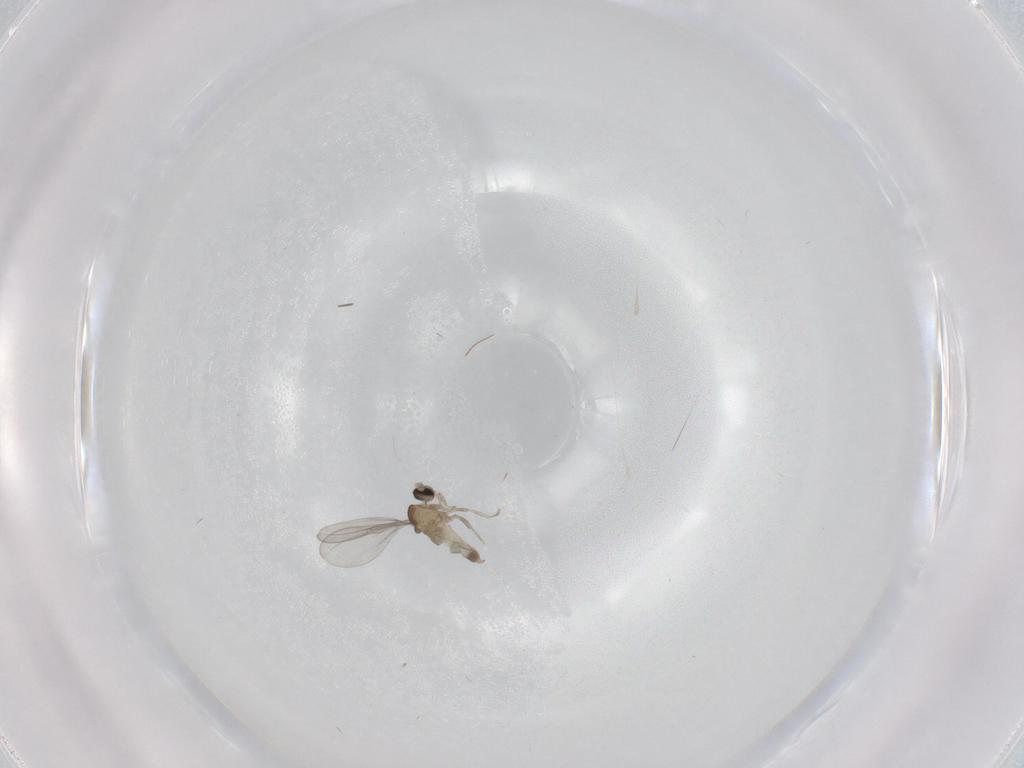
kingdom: Animalia
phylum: Arthropoda
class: Insecta
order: Diptera
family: Cecidomyiidae
